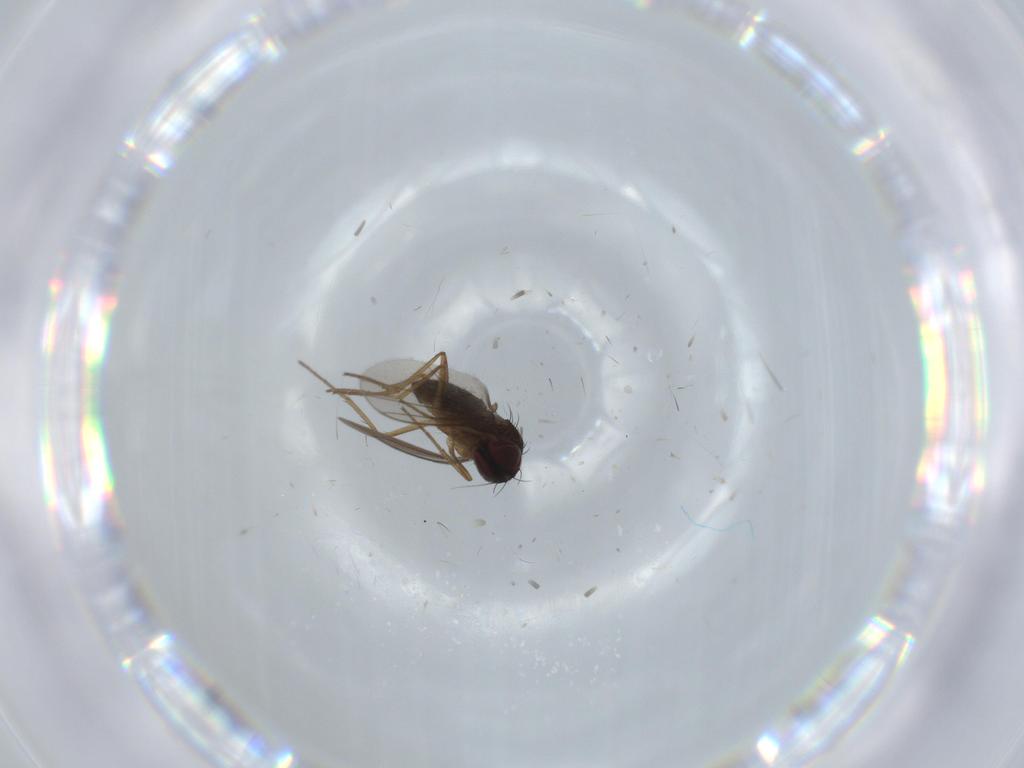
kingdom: Animalia
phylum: Arthropoda
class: Insecta
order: Diptera
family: Dolichopodidae
